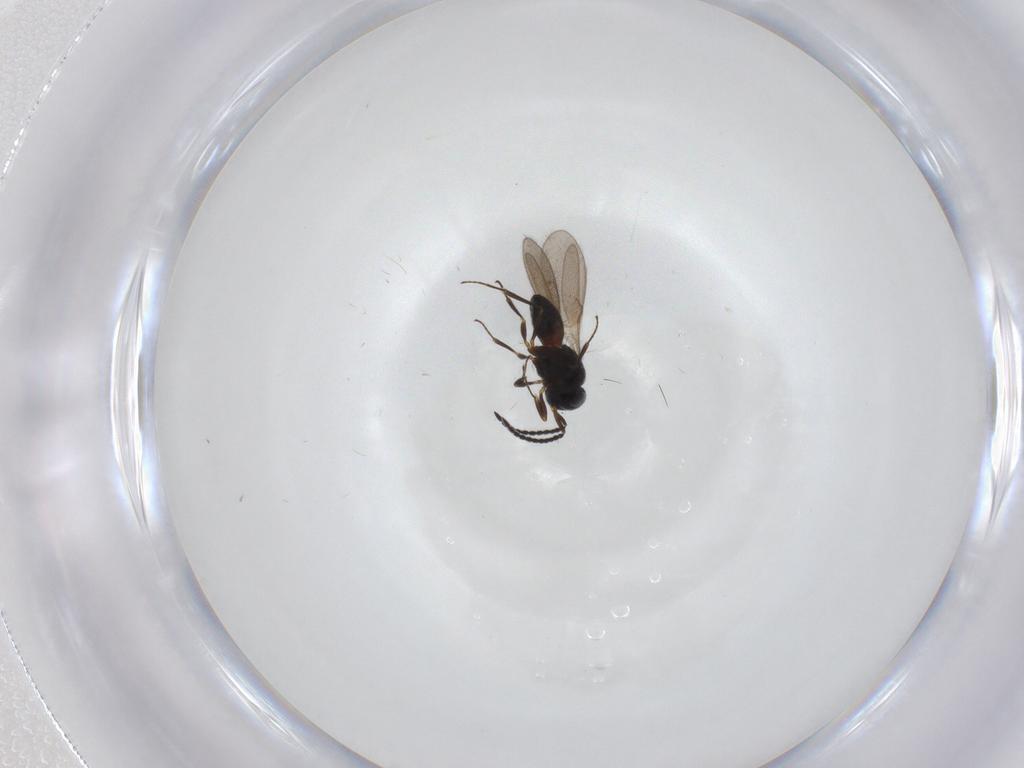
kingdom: Animalia
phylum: Arthropoda
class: Insecta
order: Hymenoptera
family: Scelionidae
